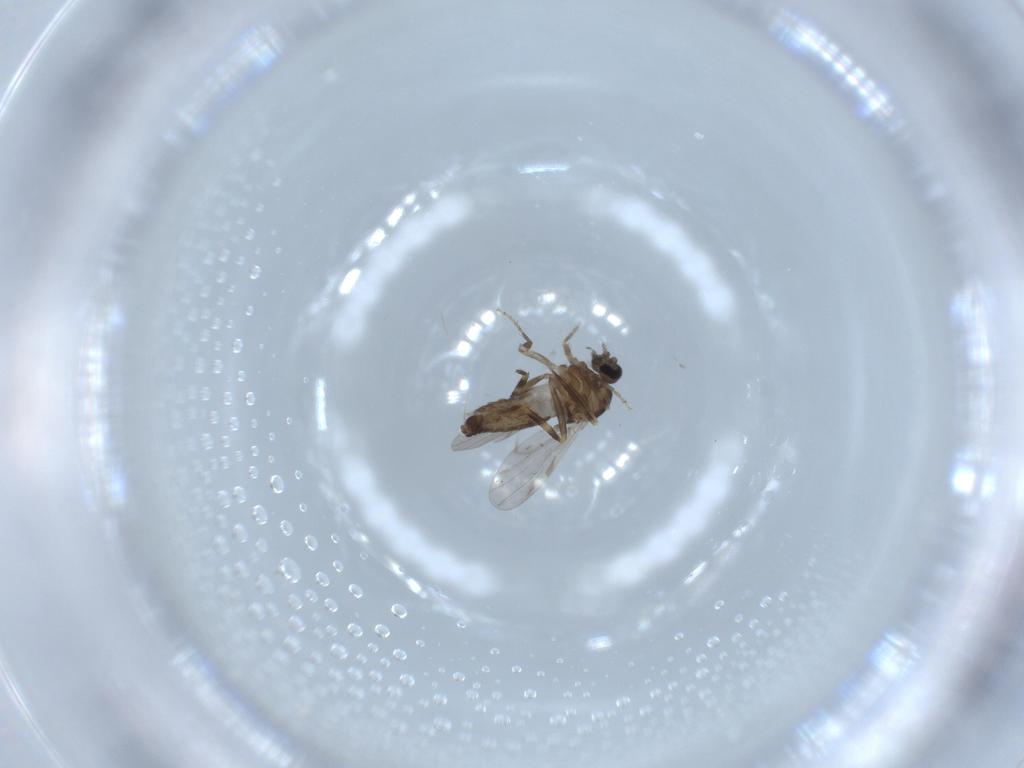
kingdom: Animalia
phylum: Arthropoda
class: Insecta
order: Diptera
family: Ceratopogonidae
